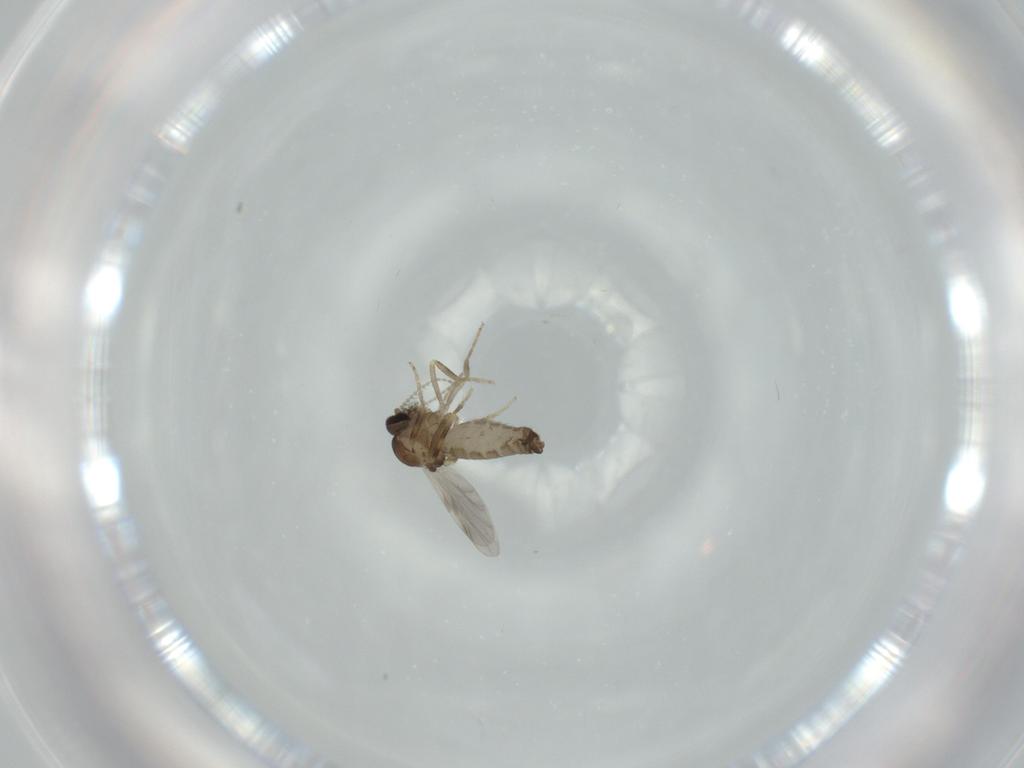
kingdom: Animalia
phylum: Arthropoda
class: Insecta
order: Diptera
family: Ceratopogonidae
